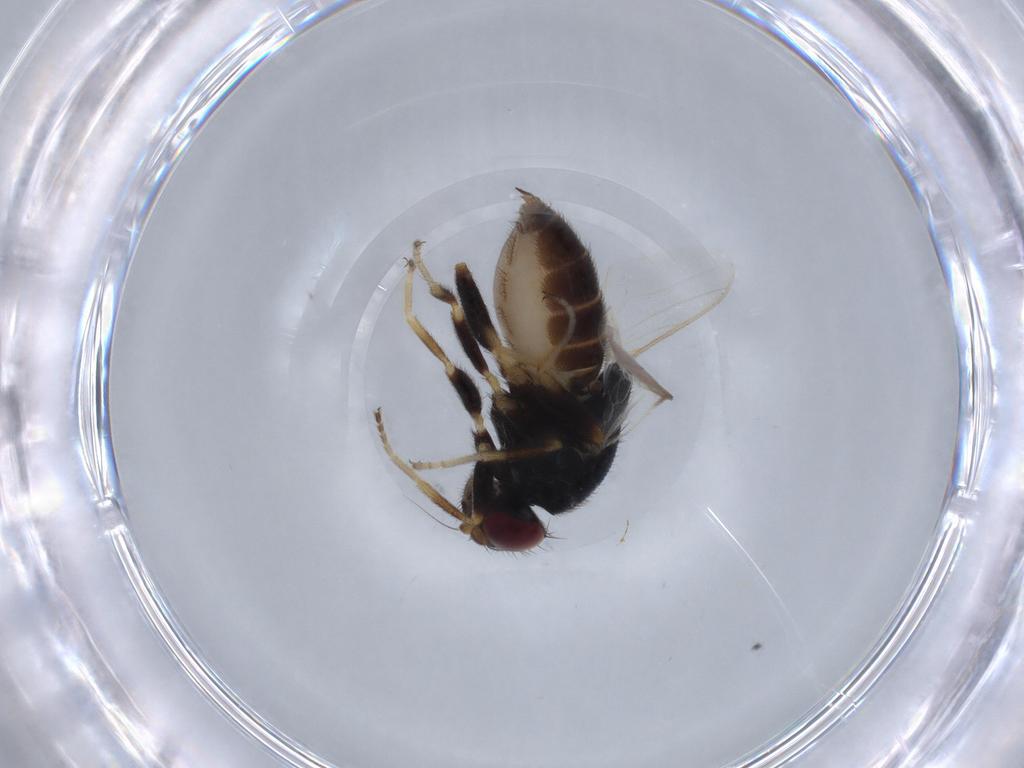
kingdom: Animalia
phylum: Arthropoda
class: Insecta
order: Diptera
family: Chloropidae
